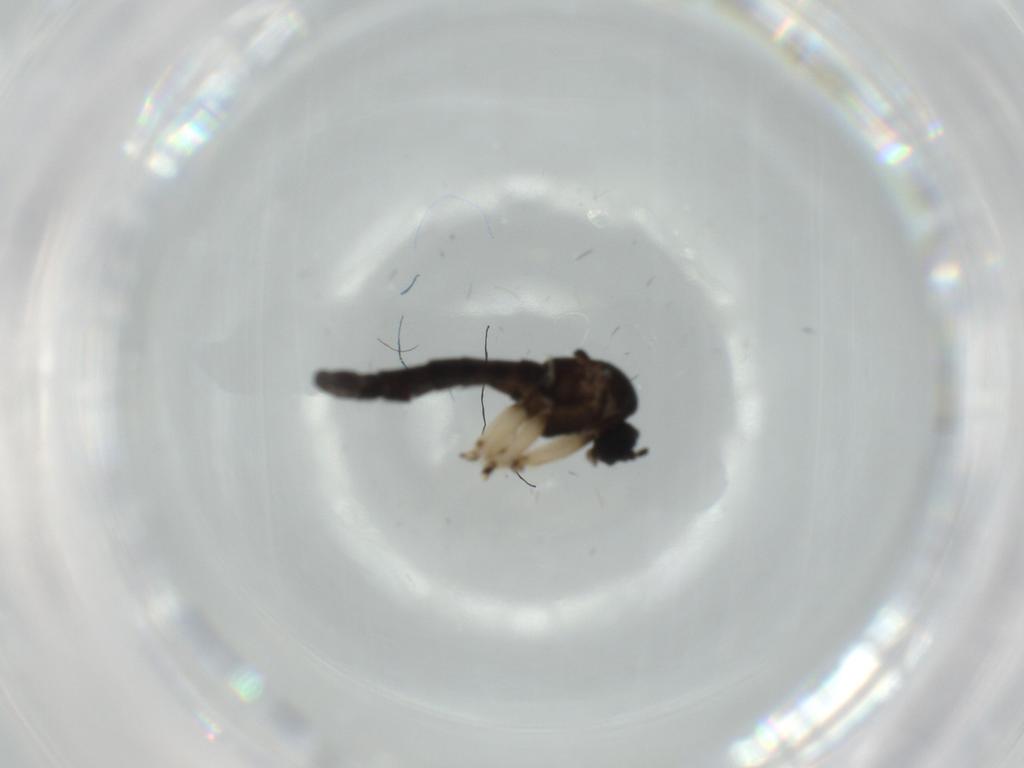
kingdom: Animalia
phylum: Arthropoda
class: Insecta
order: Diptera
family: Sciaridae
